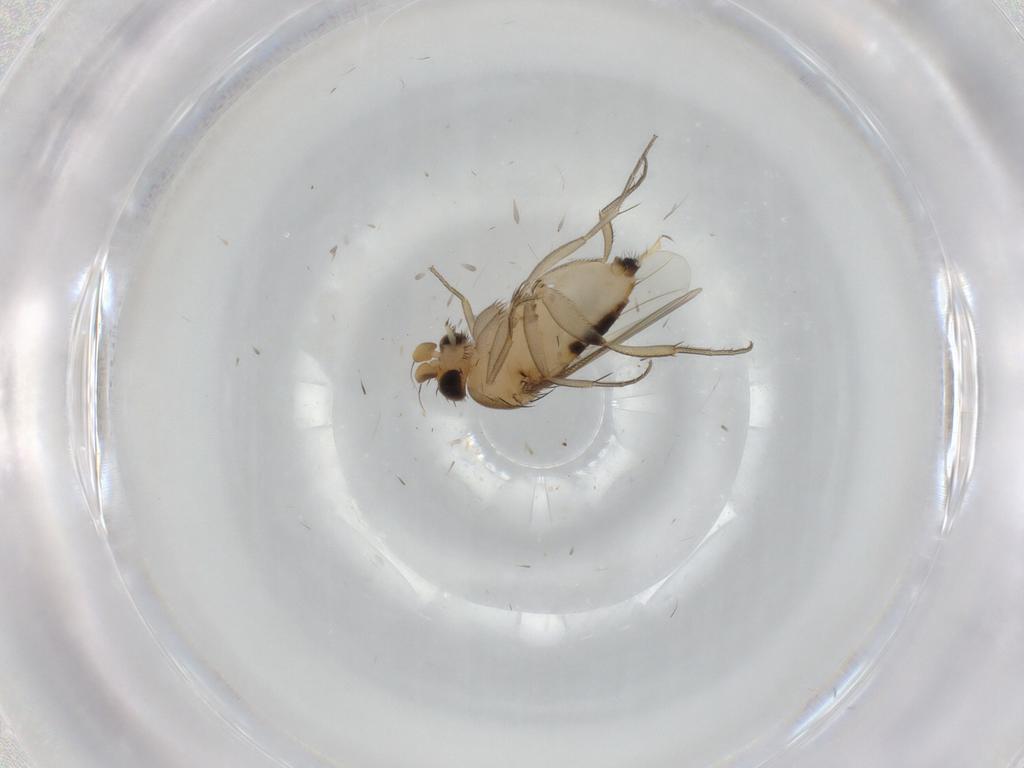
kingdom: Animalia
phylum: Arthropoda
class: Insecta
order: Diptera
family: Phoridae
